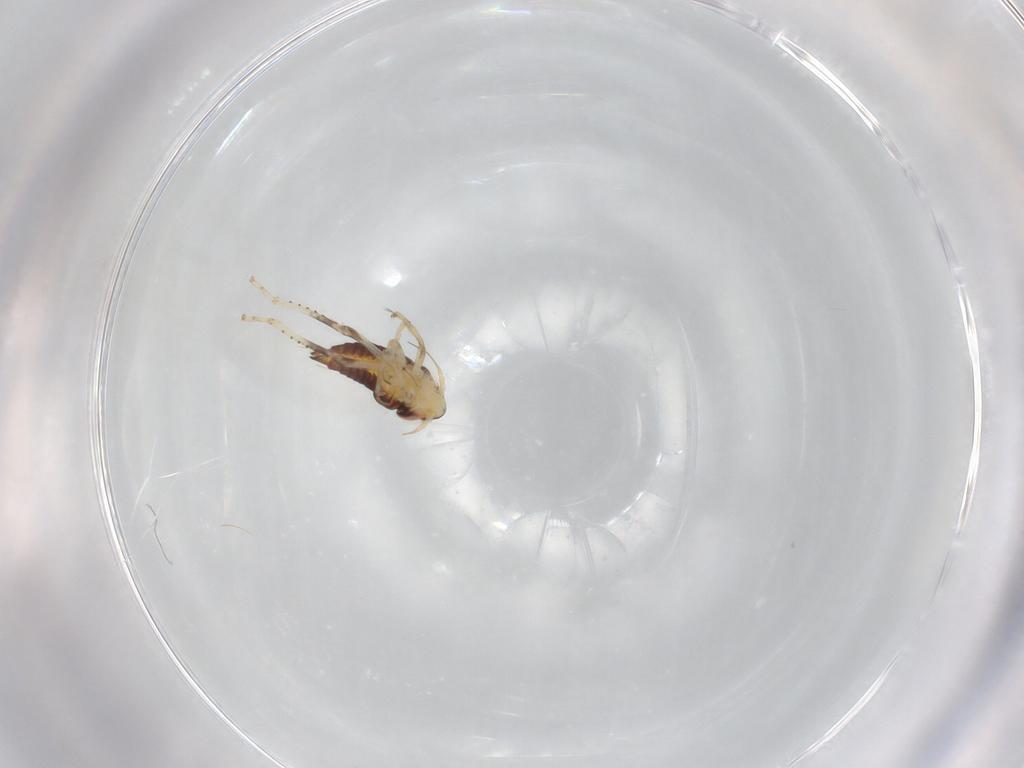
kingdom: Animalia
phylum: Arthropoda
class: Insecta
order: Hemiptera
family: Cicadellidae
